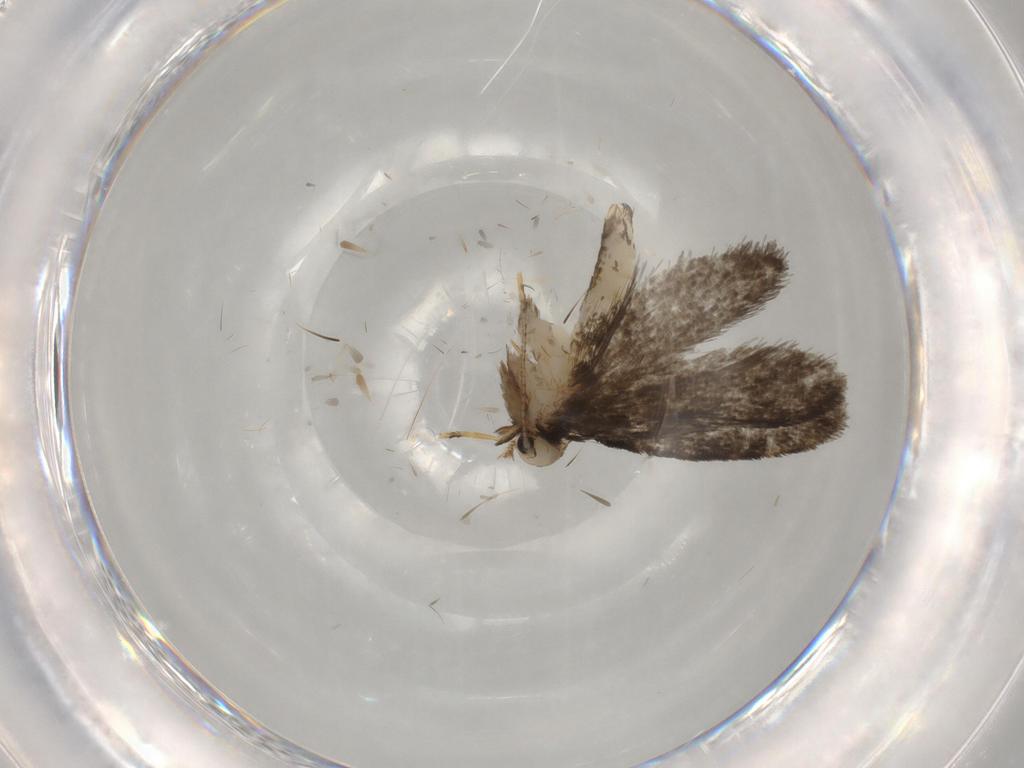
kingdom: Animalia
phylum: Arthropoda
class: Insecta
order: Lepidoptera
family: Psychidae
